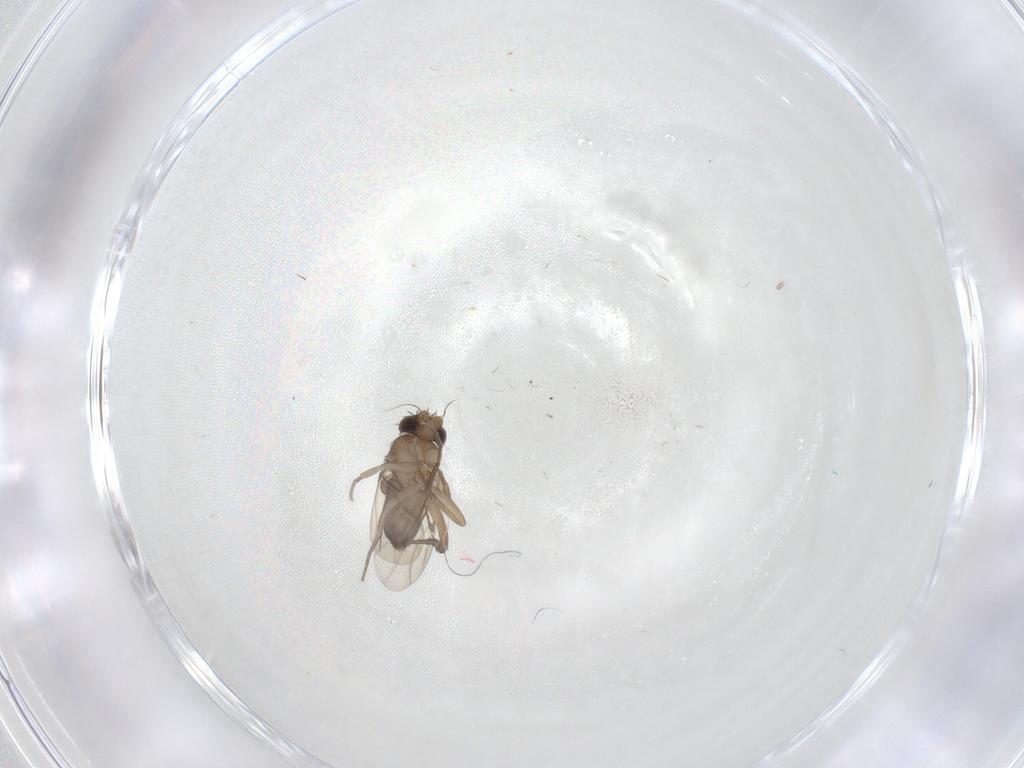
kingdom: Animalia
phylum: Arthropoda
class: Insecta
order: Diptera
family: Phoridae
